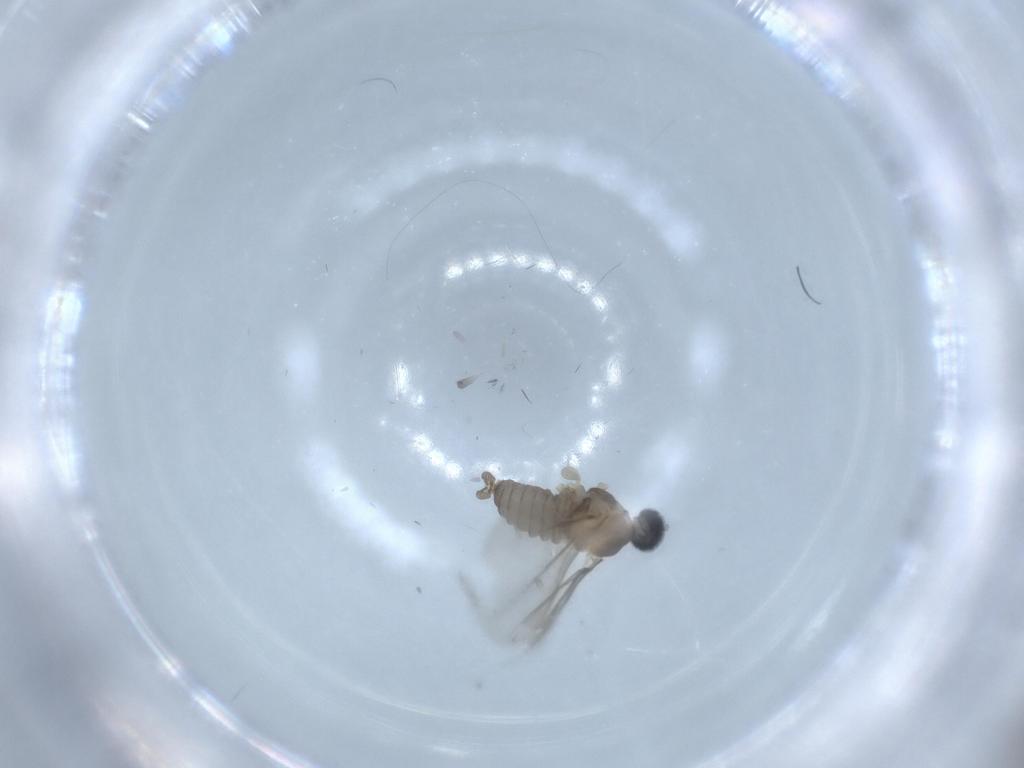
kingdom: Animalia
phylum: Arthropoda
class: Insecta
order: Diptera
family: Cecidomyiidae
